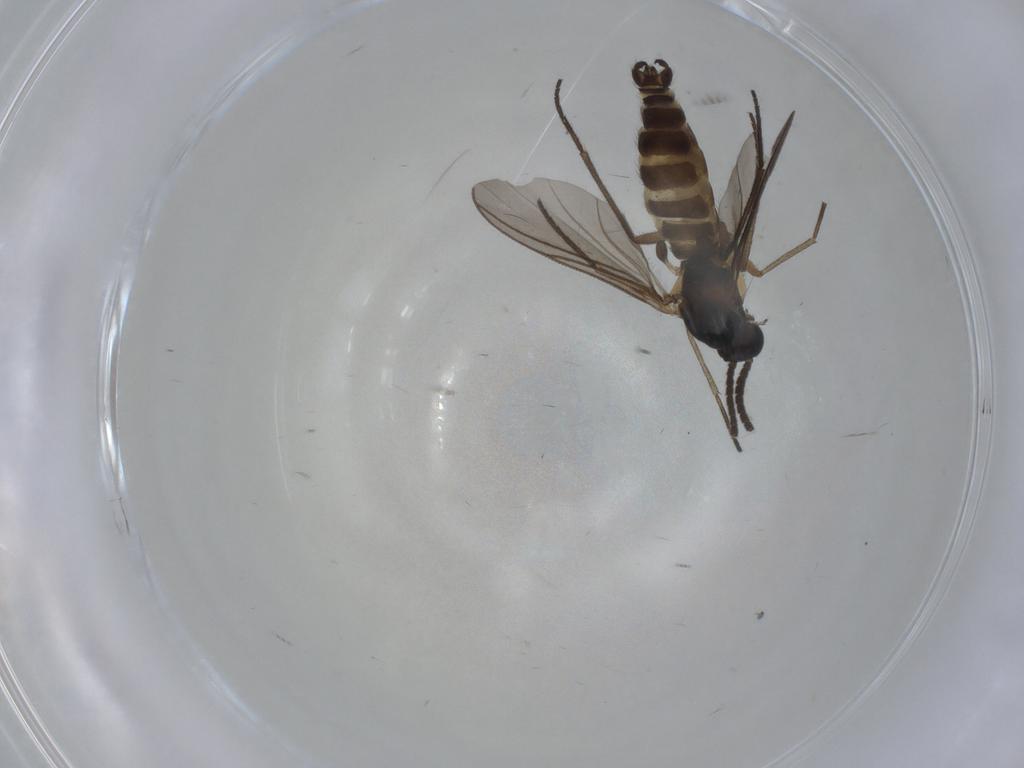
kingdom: Animalia
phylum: Arthropoda
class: Insecta
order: Diptera
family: Sciaridae
